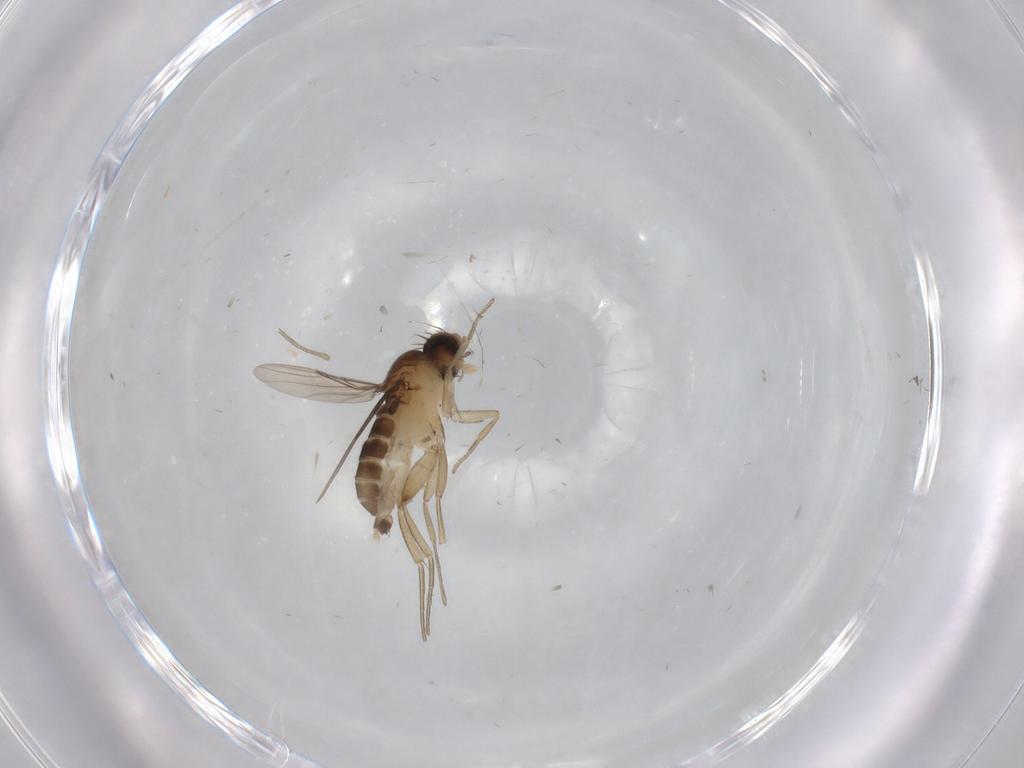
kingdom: Animalia
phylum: Arthropoda
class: Insecta
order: Diptera
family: Phoridae
